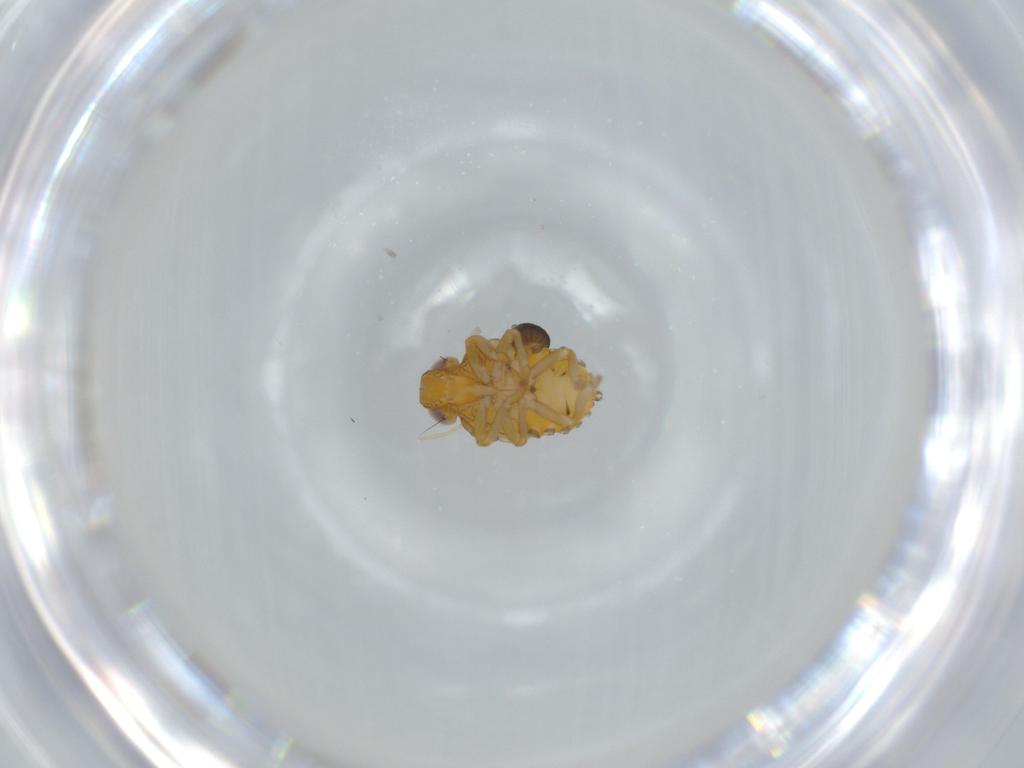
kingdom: Animalia
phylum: Arthropoda
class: Insecta
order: Hemiptera
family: Issidae
